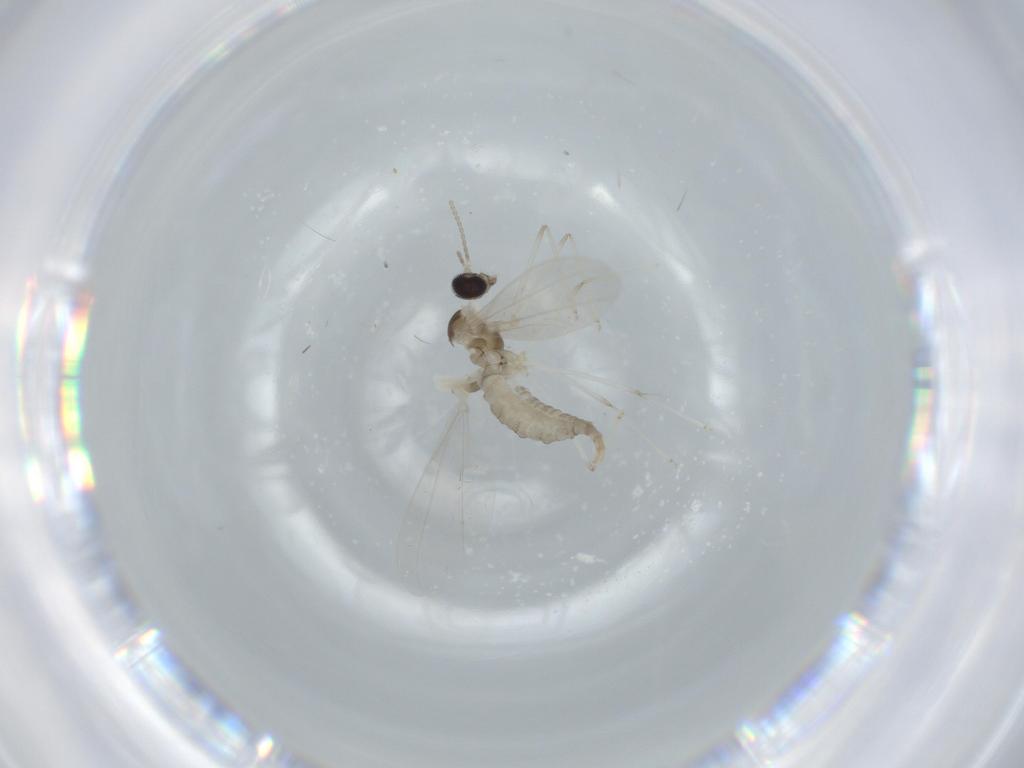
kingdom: Animalia
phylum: Arthropoda
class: Insecta
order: Diptera
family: Cecidomyiidae
